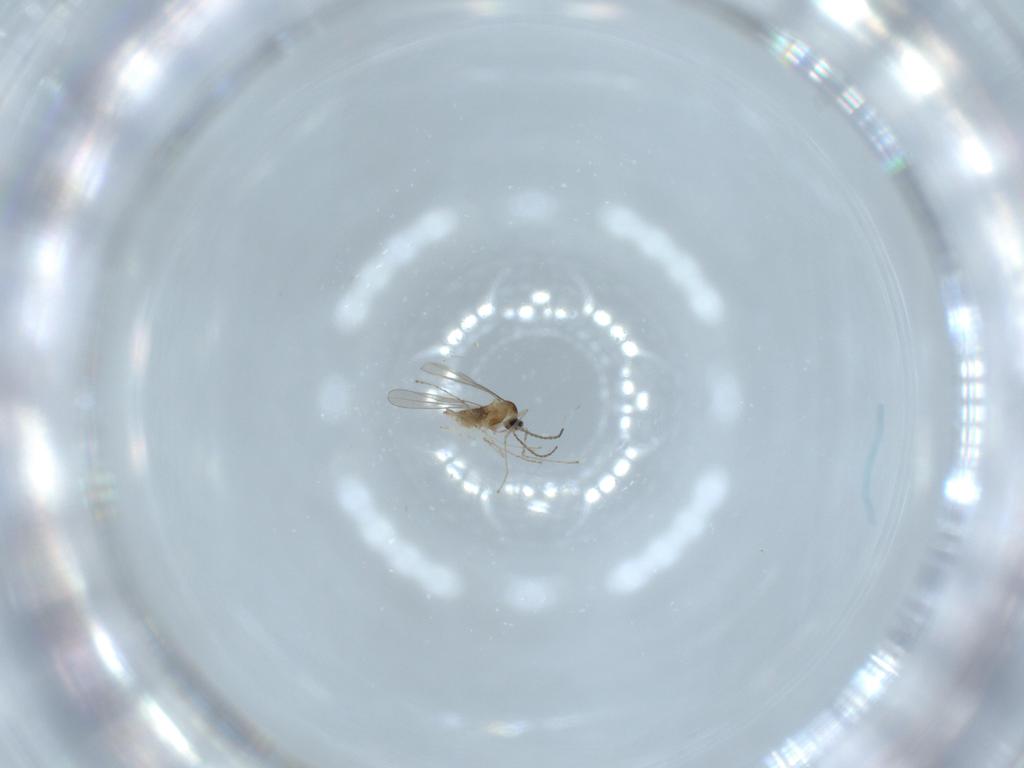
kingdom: Animalia
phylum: Arthropoda
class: Insecta
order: Diptera
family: Cecidomyiidae
